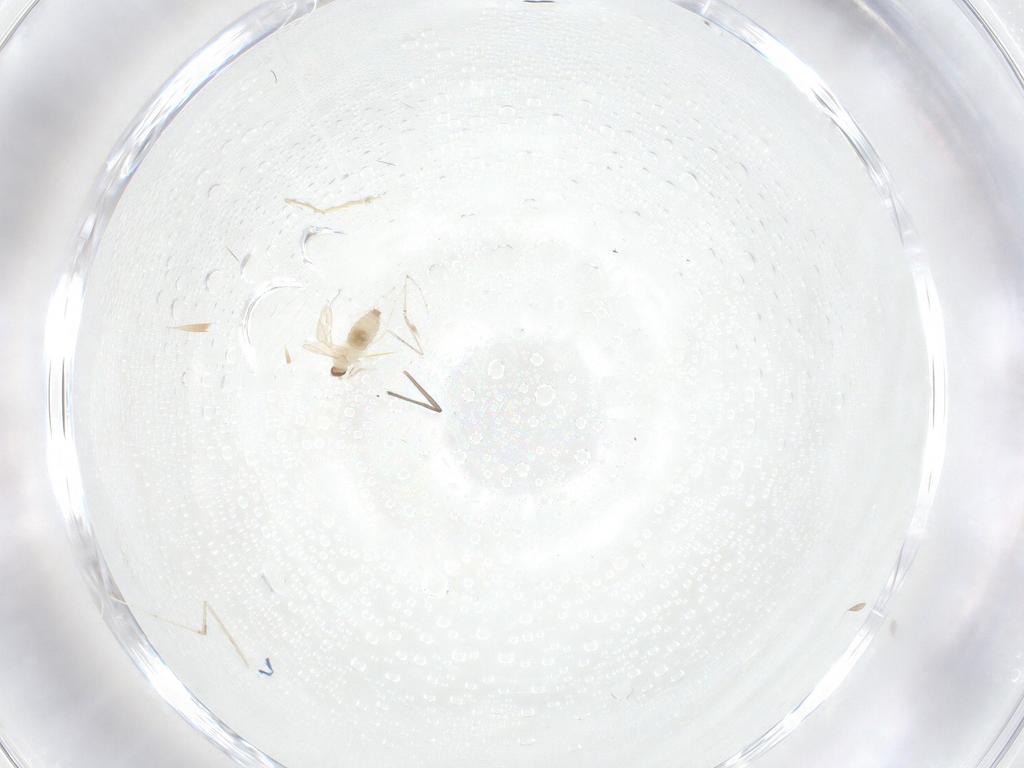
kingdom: Animalia
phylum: Arthropoda
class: Insecta
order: Diptera
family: Cecidomyiidae
